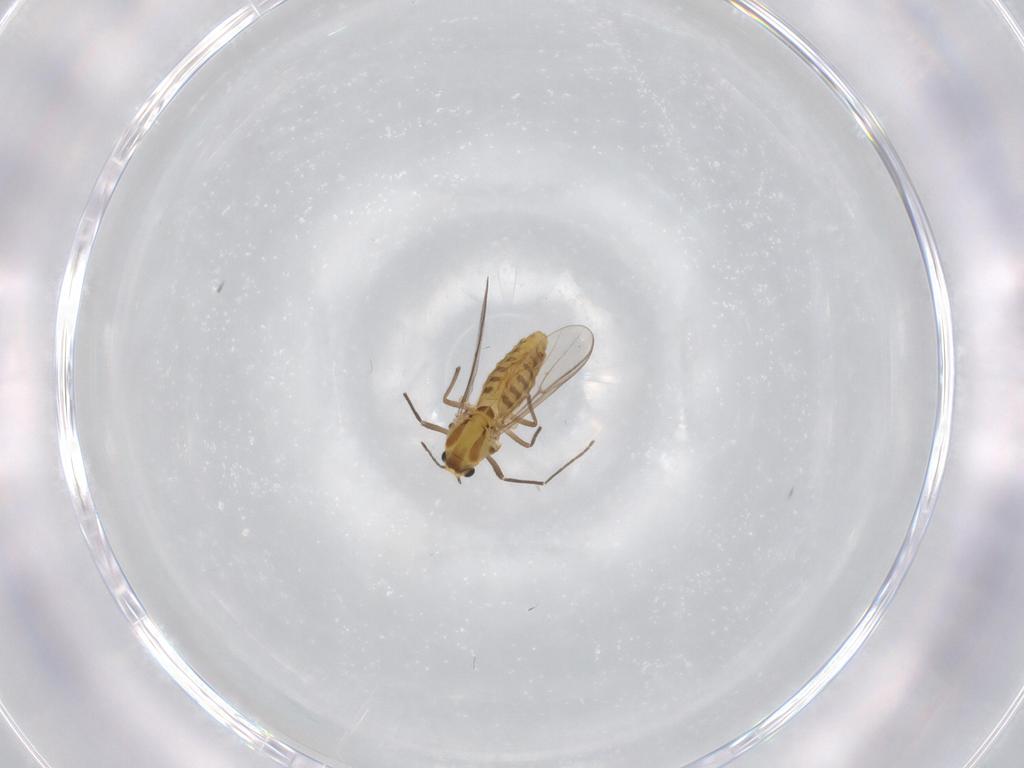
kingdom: Animalia
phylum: Arthropoda
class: Insecta
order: Diptera
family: Chironomidae
